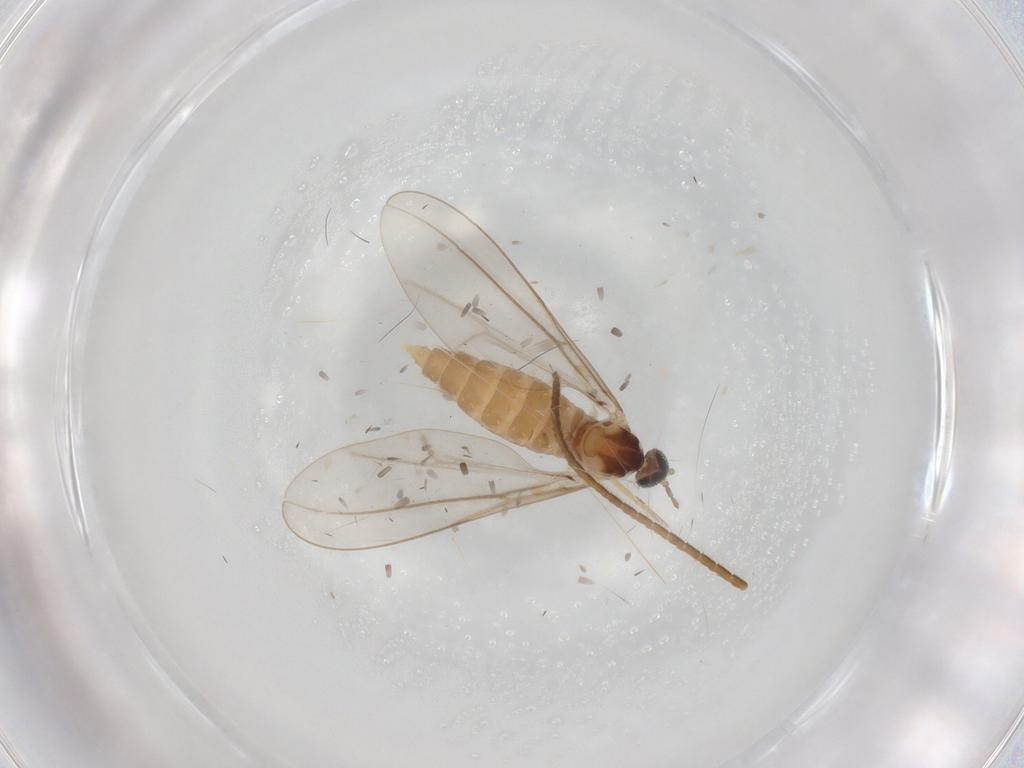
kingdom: Animalia
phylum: Arthropoda
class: Insecta
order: Diptera
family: Cecidomyiidae
